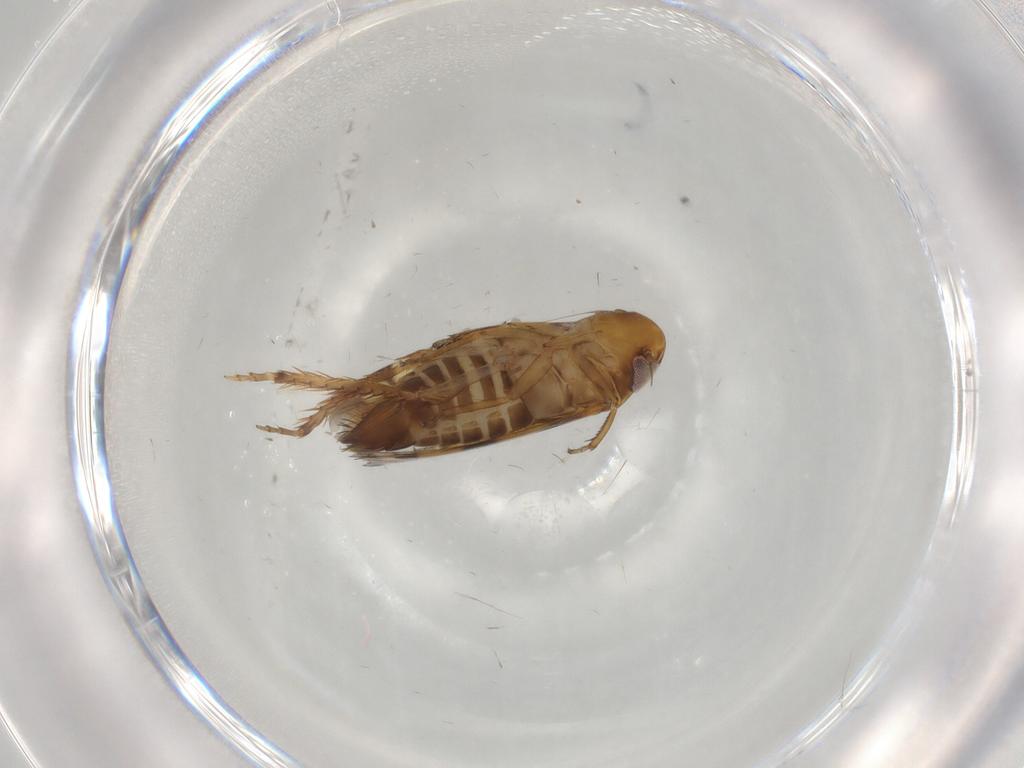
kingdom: Animalia
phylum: Arthropoda
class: Insecta
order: Hemiptera
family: Cicadellidae
